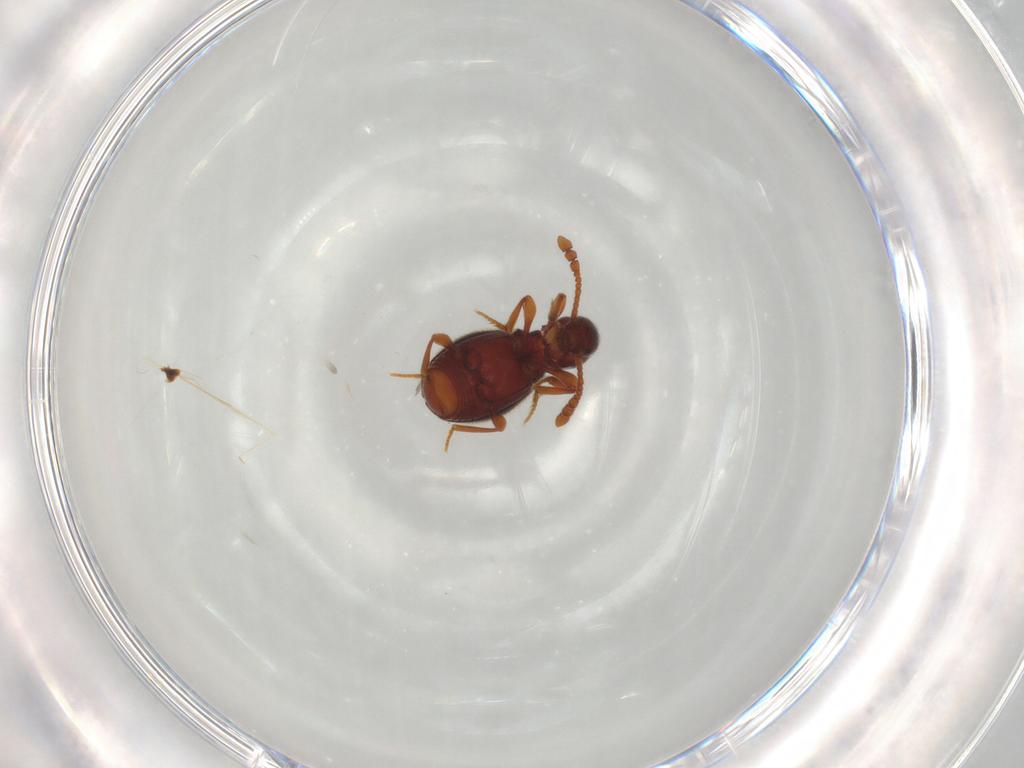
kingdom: Animalia
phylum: Arthropoda
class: Insecta
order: Coleoptera
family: Staphylinidae
